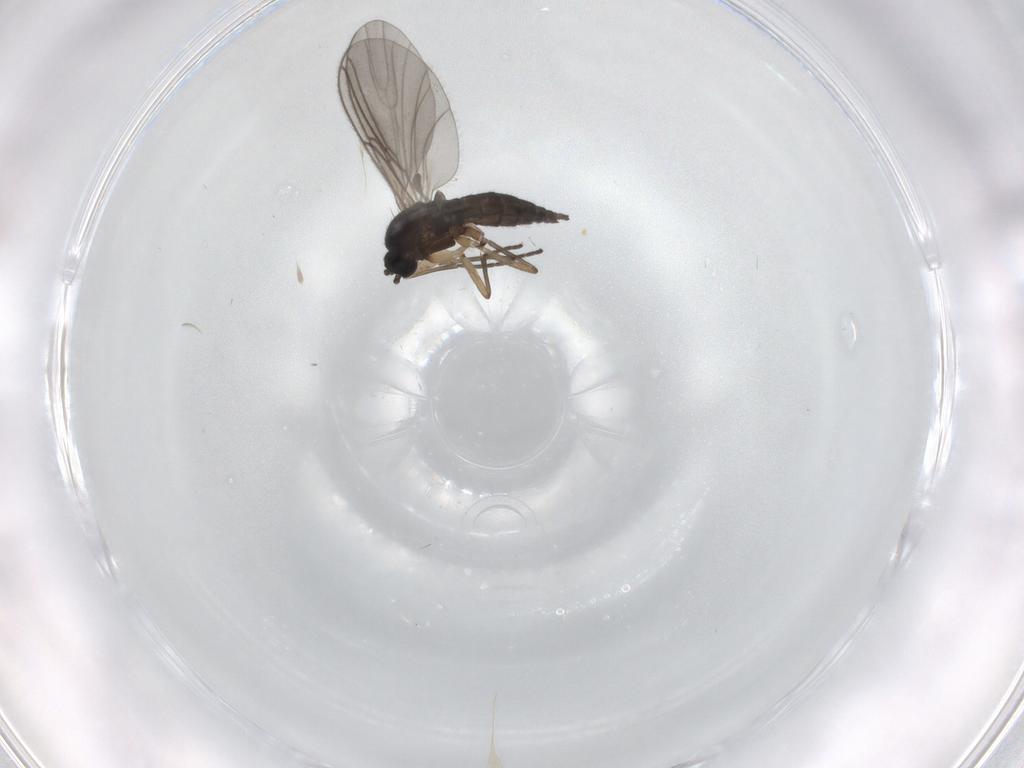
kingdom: Animalia
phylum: Arthropoda
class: Insecta
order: Diptera
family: Sciaridae
